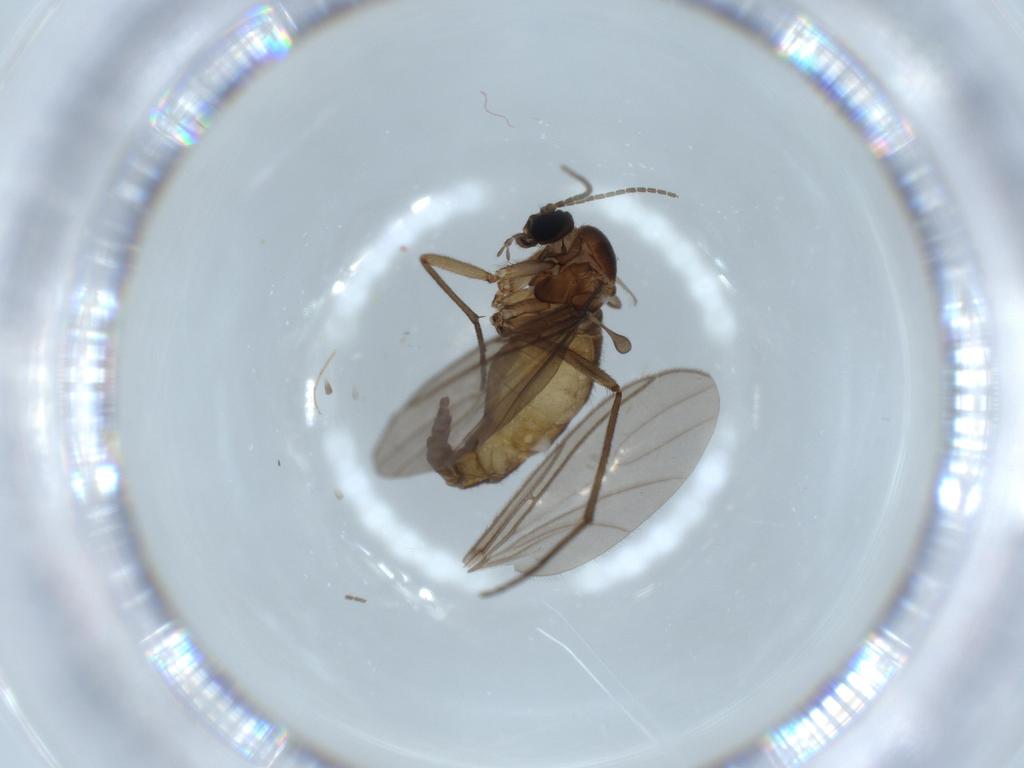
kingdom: Animalia
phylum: Arthropoda
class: Insecta
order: Diptera
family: Sciaridae
